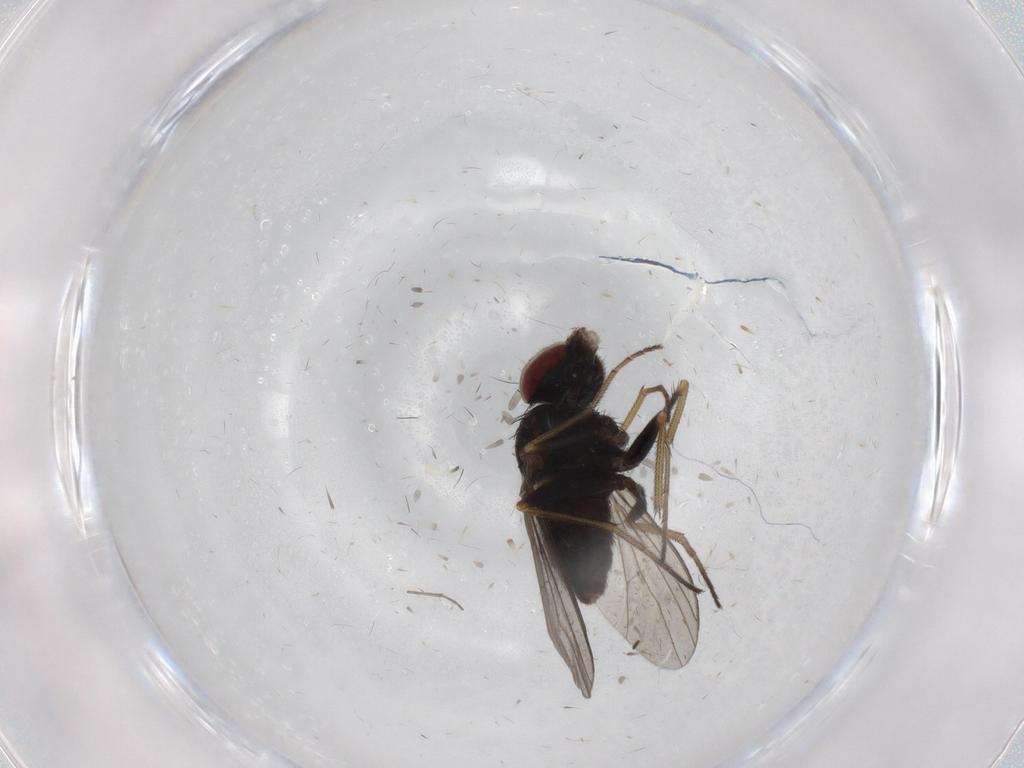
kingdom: Animalia
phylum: Arthropoda
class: Insecta
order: Diptera
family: Dolichopodidae
